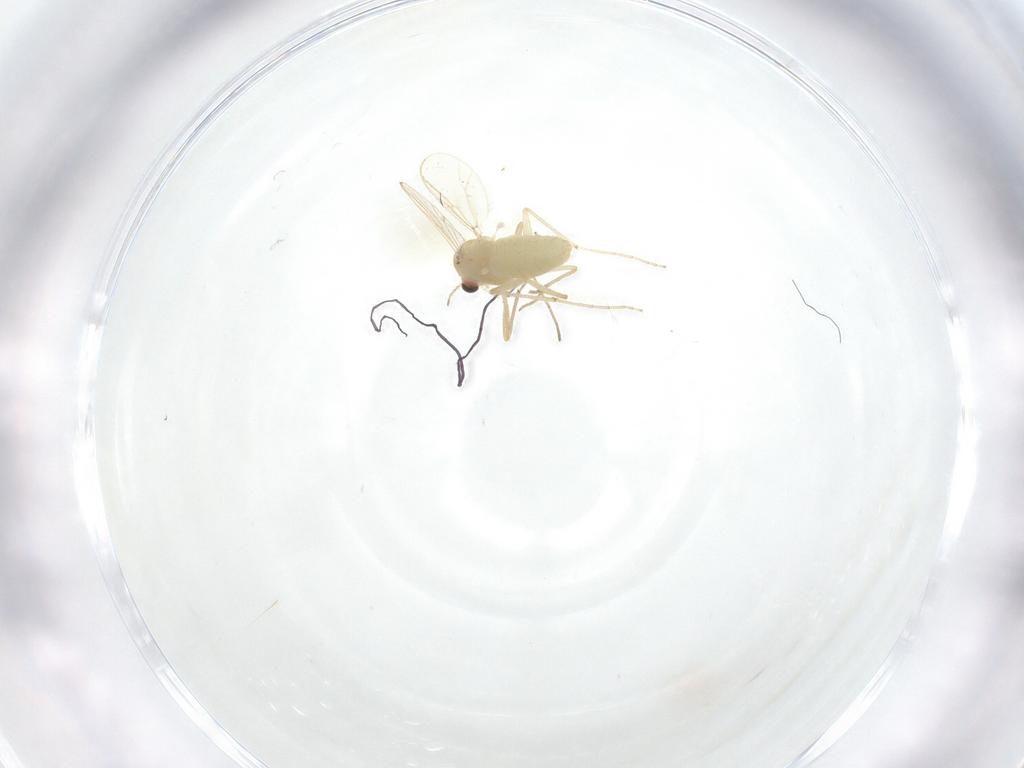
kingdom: Animalia
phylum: Arthropoda
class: Insecta
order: Diptera
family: Chironomidae
